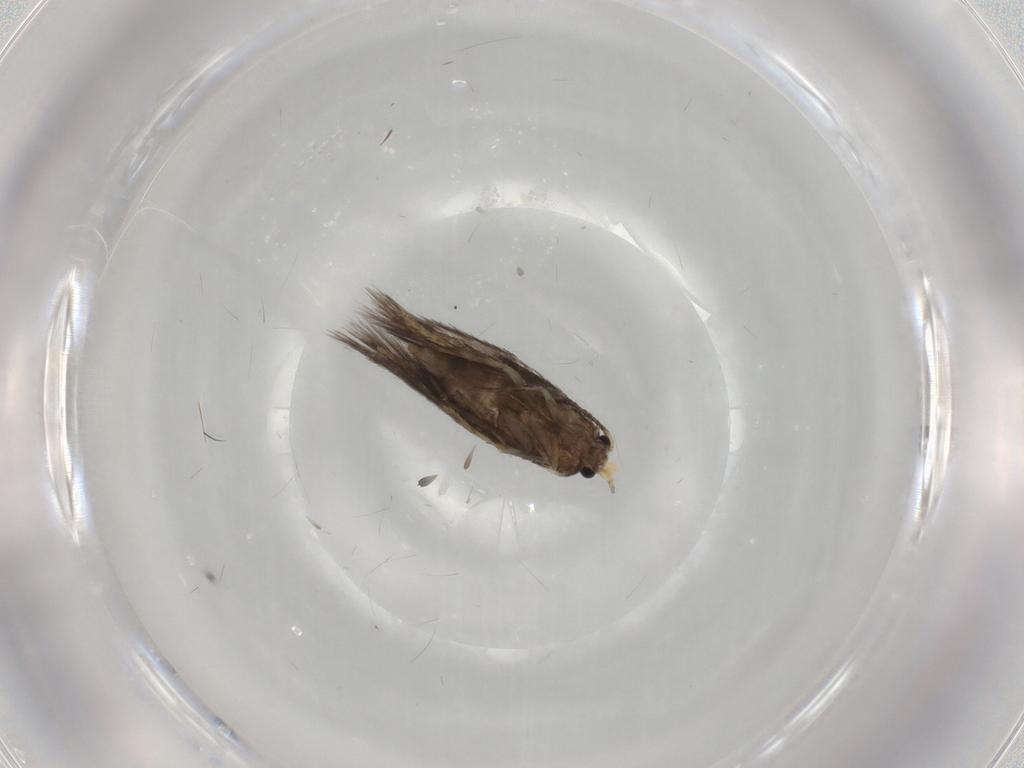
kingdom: Animalia
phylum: Arthropoda
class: Insecta
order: Lepidoptera
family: Nepticulidae
